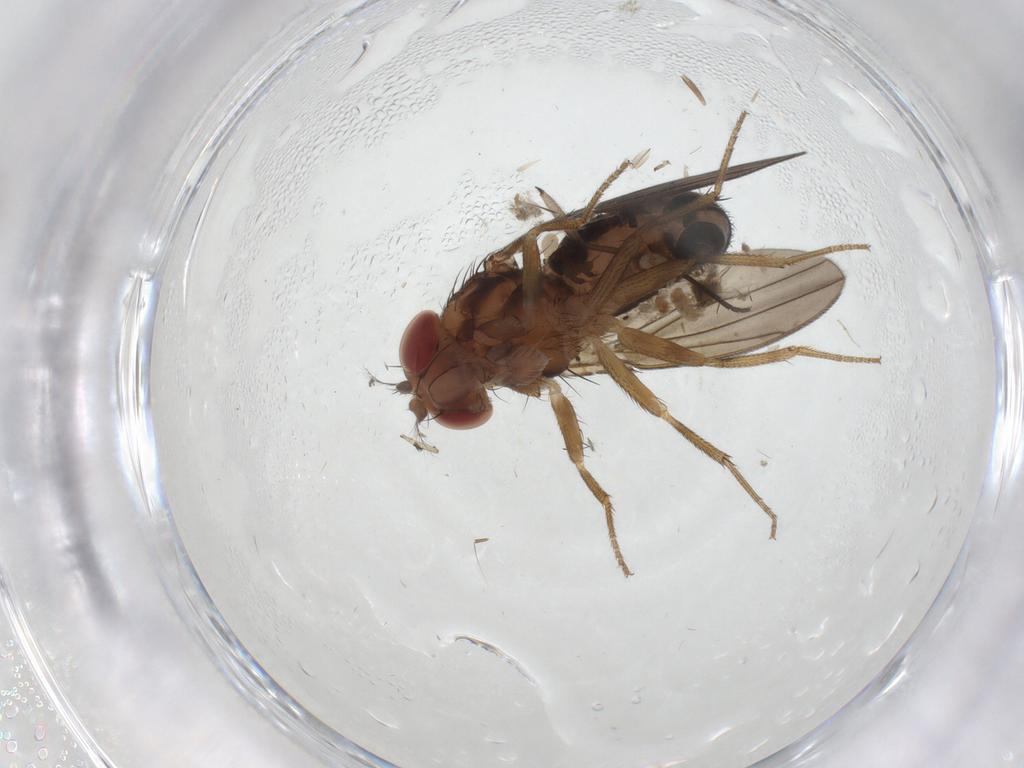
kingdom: Animalia
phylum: Arthropoda
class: Insecta
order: Diptera
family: Drosophilidae
